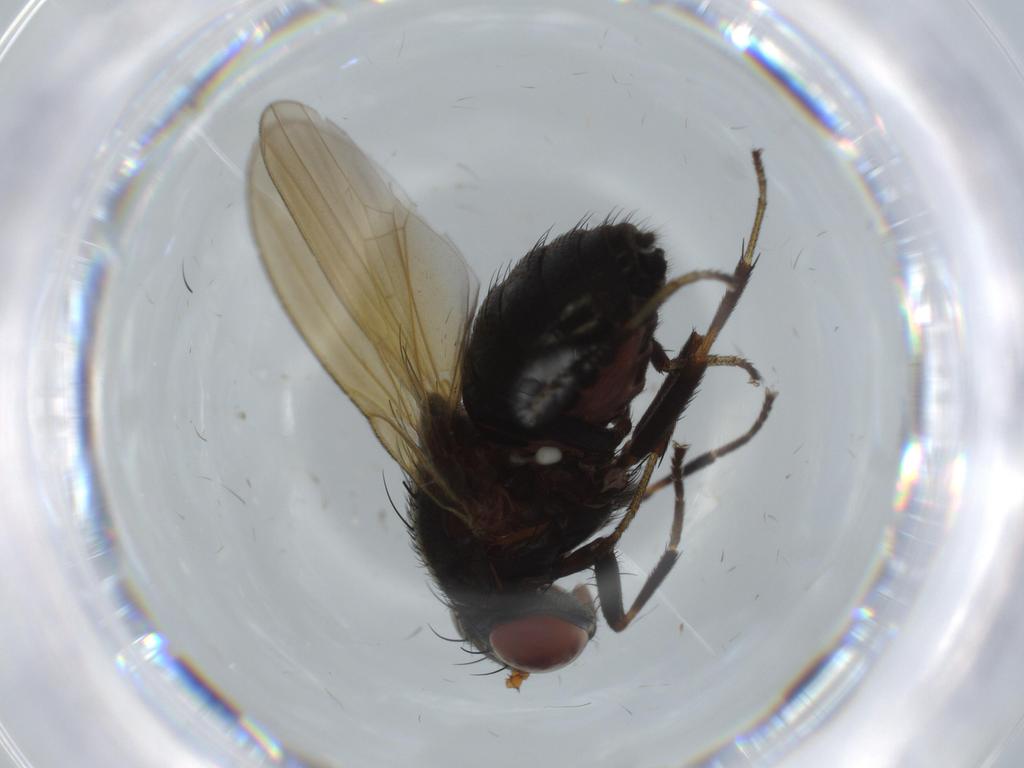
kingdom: Animalia
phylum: Arthropoda
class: Insecta
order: Diptera
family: Lauxaniidae
